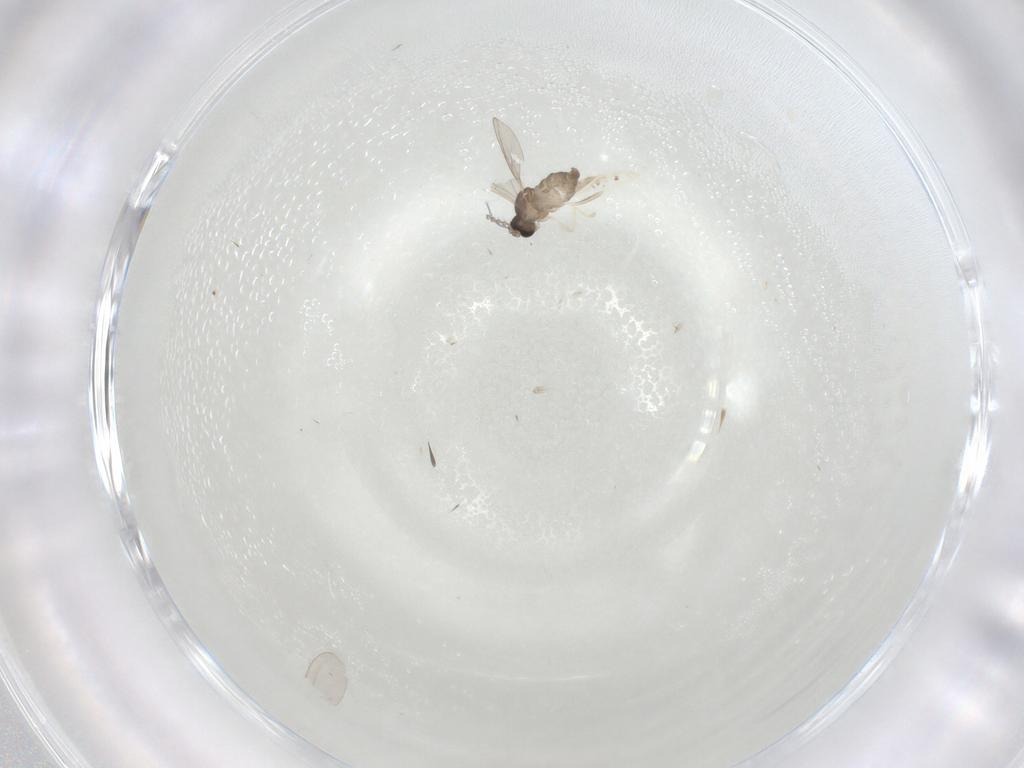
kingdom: Animalia
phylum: Arthropoda
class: Insecta
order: Diptera
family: Cecidomyiidae
